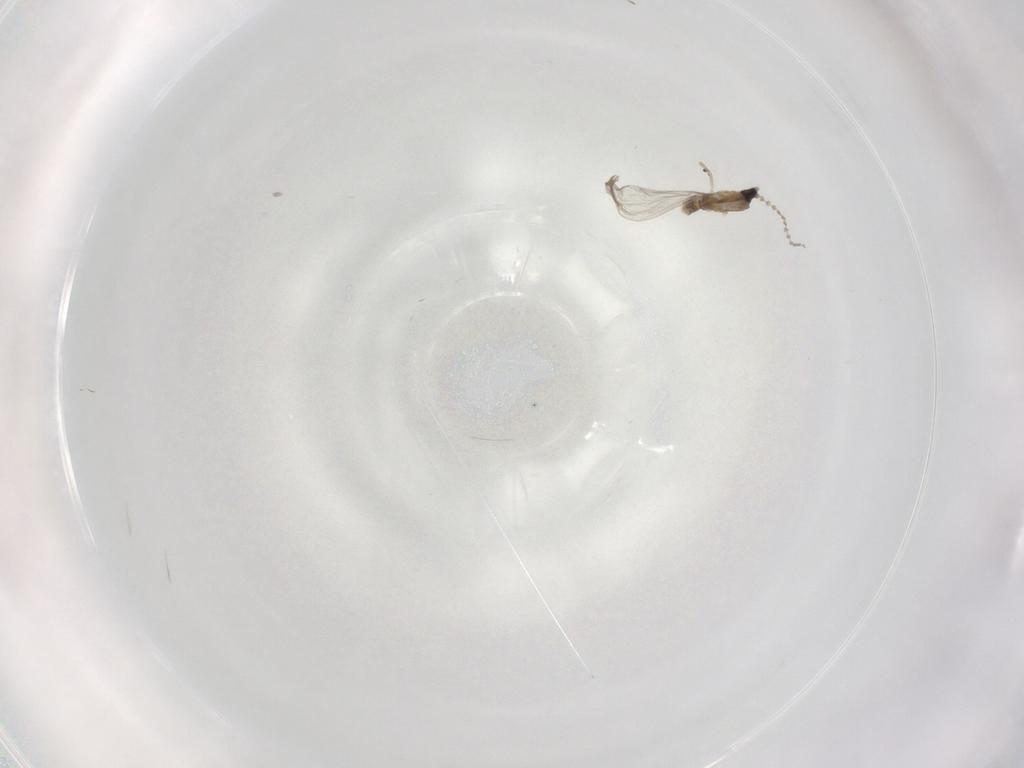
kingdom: Animalia
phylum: Arthropoda
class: Insecta
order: Diptera
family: Cecidomyiidae
